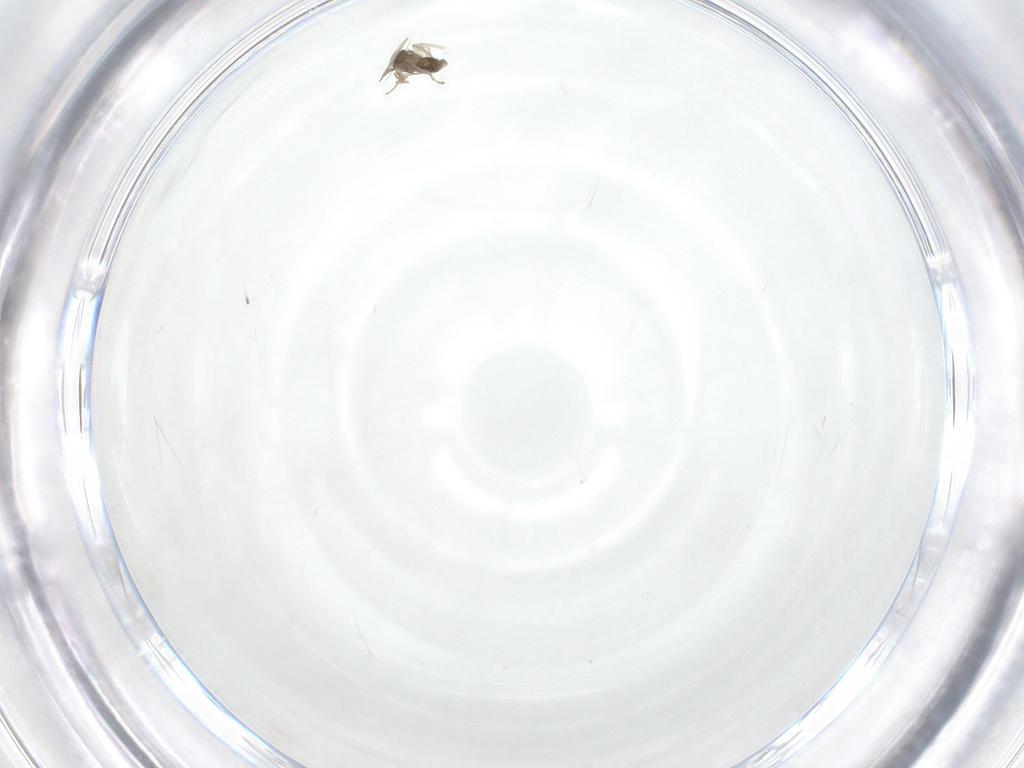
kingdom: Animalia
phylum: Arthropoda
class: Insecta
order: Diptera
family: Cecidomyiidae
